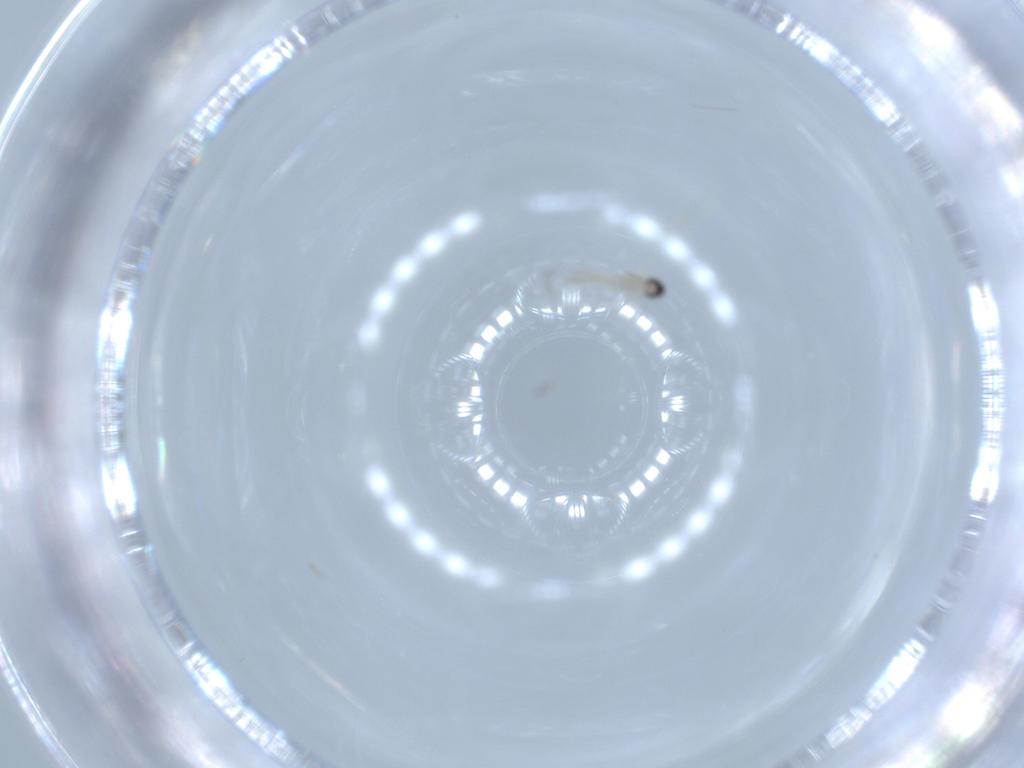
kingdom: Animalia
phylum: Arthropoda
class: Insecta
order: Diptera
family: Cecidomyiidae
